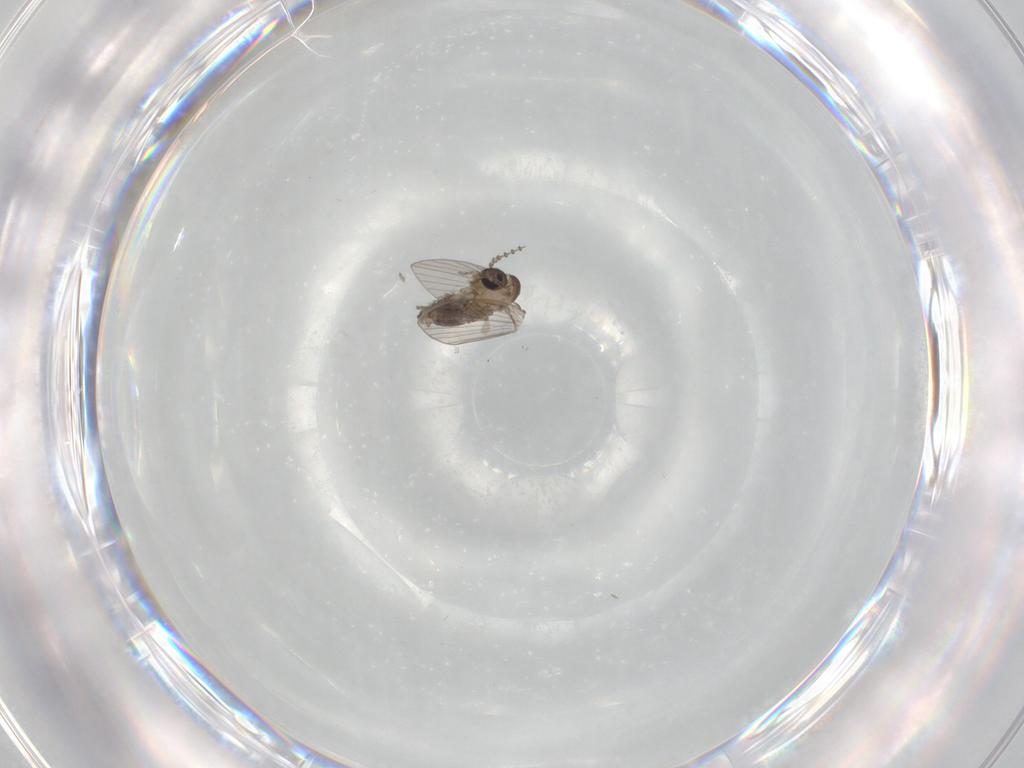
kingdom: Animalia
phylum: Arthropoda
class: Insecta
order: Diptera
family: Psychodidae
